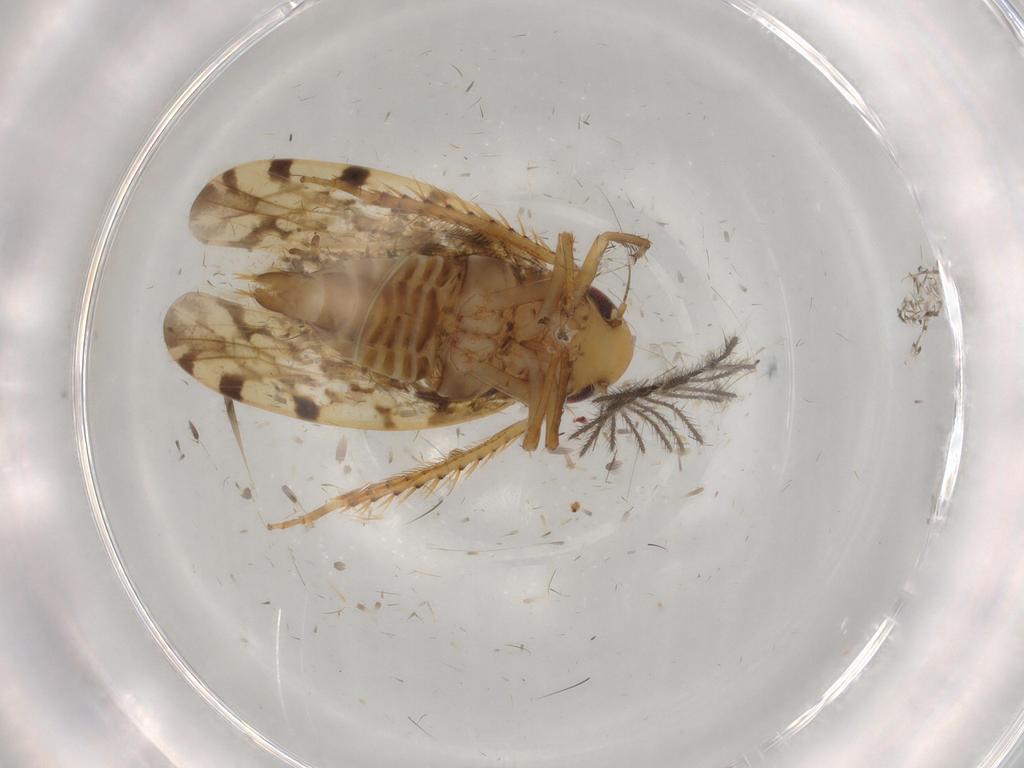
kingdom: Animalia
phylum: Arthropoda
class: Insecta
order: Hemiptera
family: Cicadellidae
